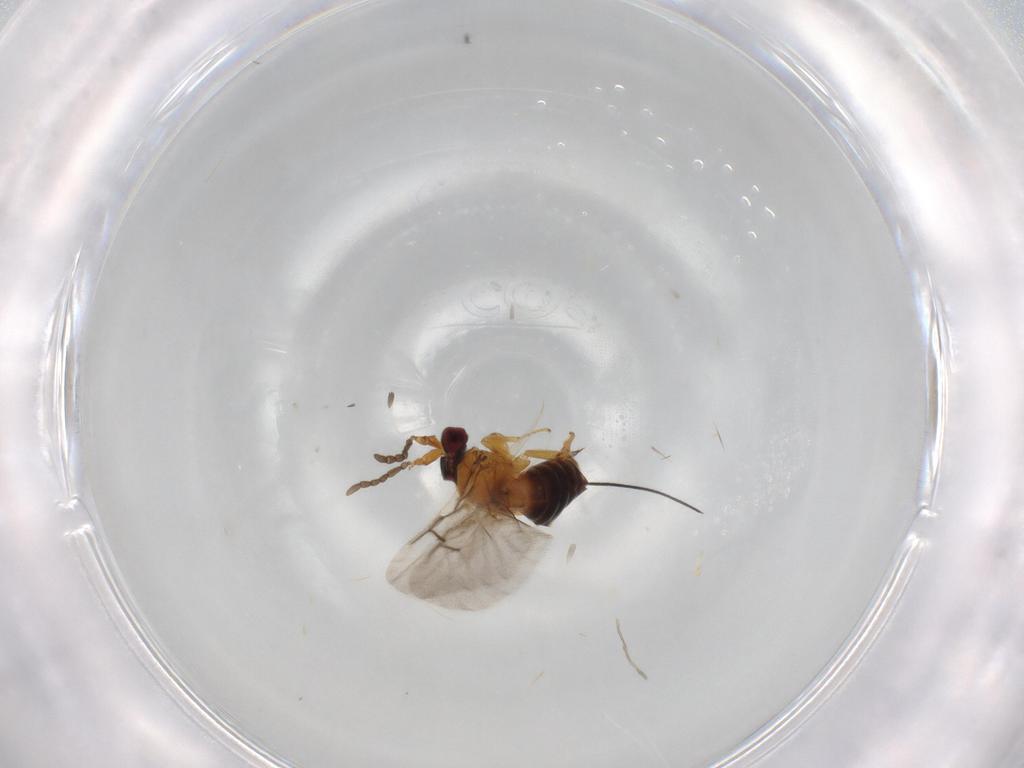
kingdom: Animalia
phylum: Arthropoda
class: Insecta
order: Hymenoptera
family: Platygastridae
